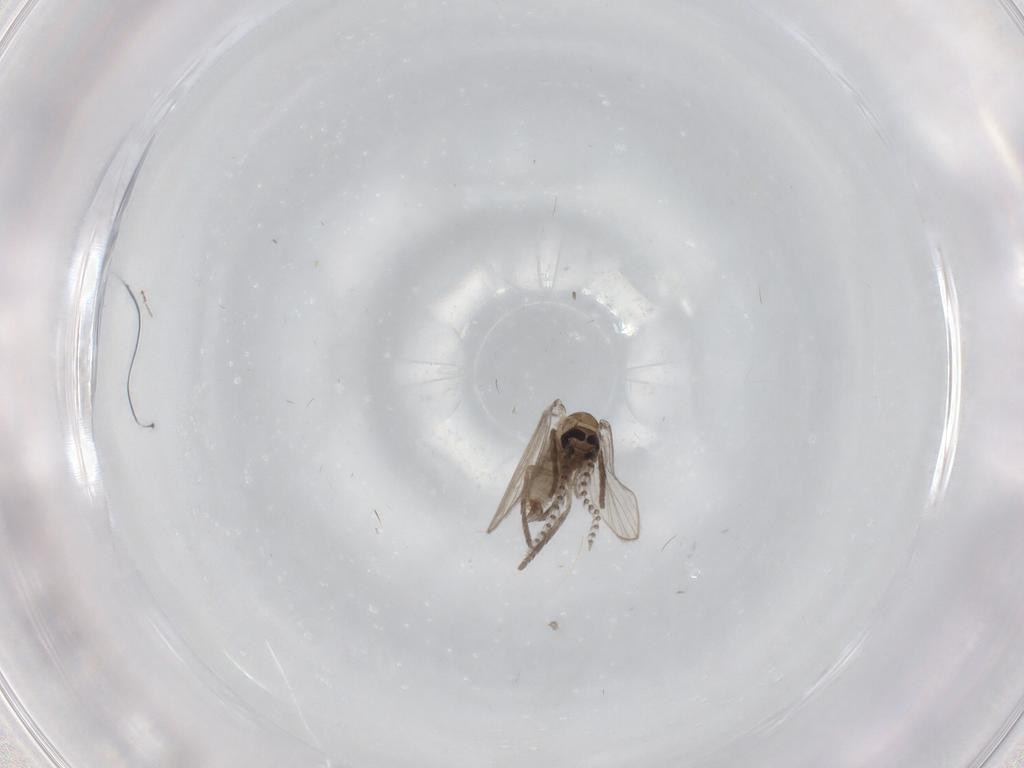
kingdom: Animalia
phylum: Arthropoda
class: Insecta
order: Diptera
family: Psychodidae
